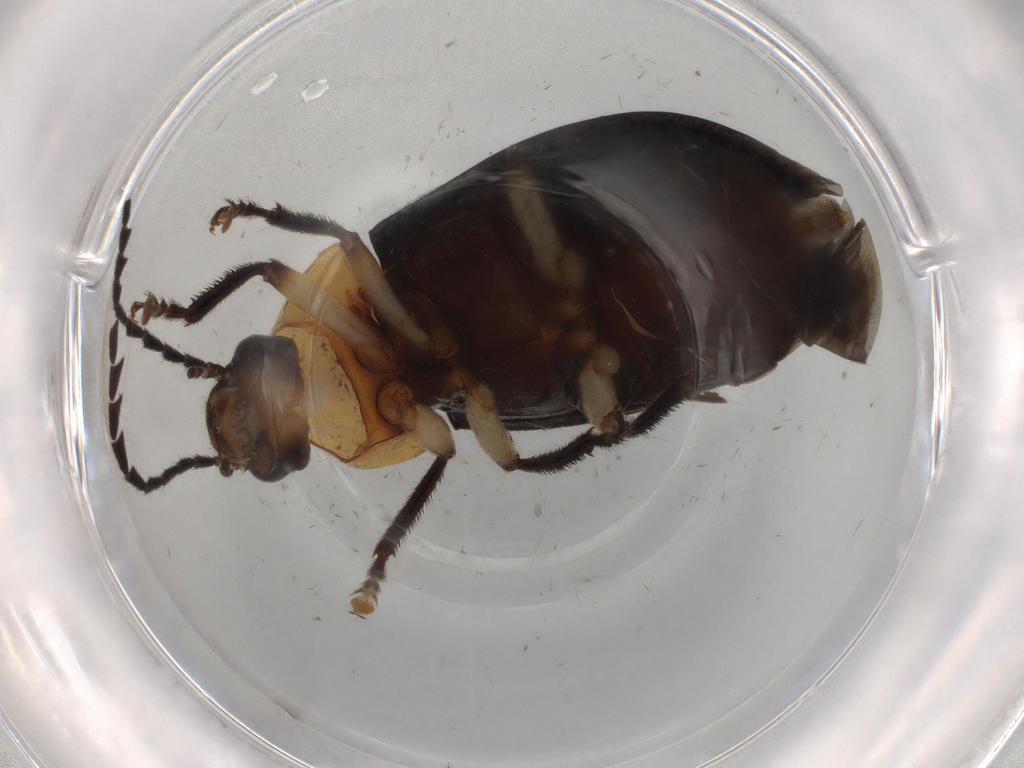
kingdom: Animalia
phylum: Arthropoda
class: Insecta
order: Coleoptera
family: Ptilodactylidae
